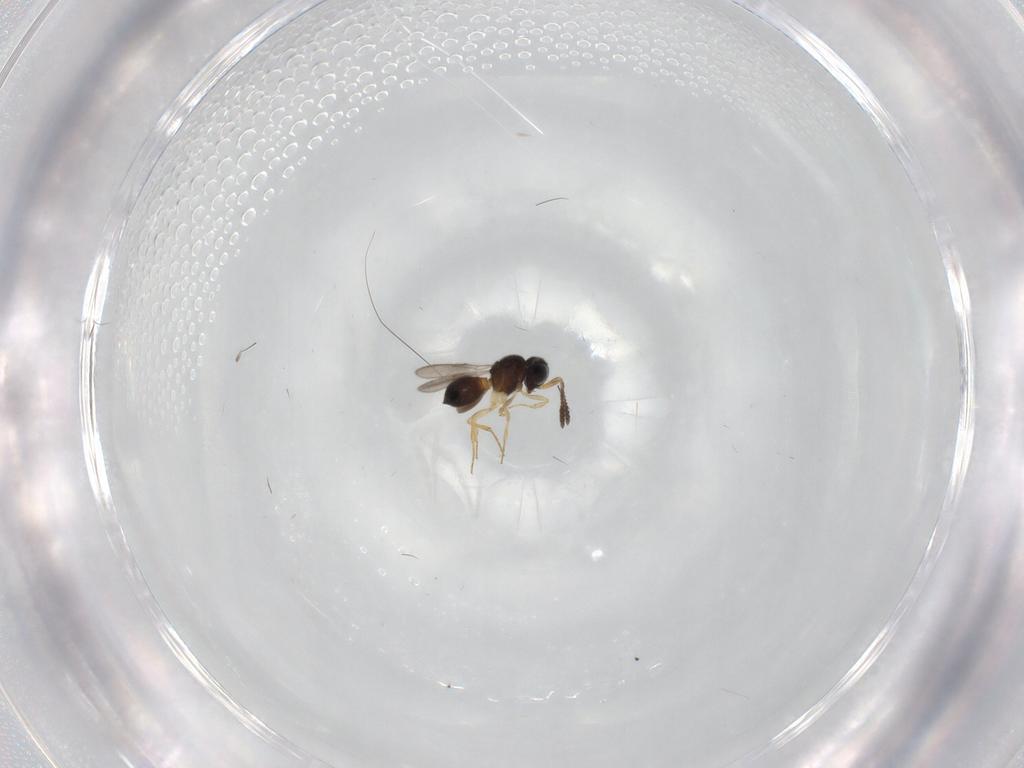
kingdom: Animalia
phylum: Arthropoda
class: Insecta
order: Hymenoptera
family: Scelionidae
